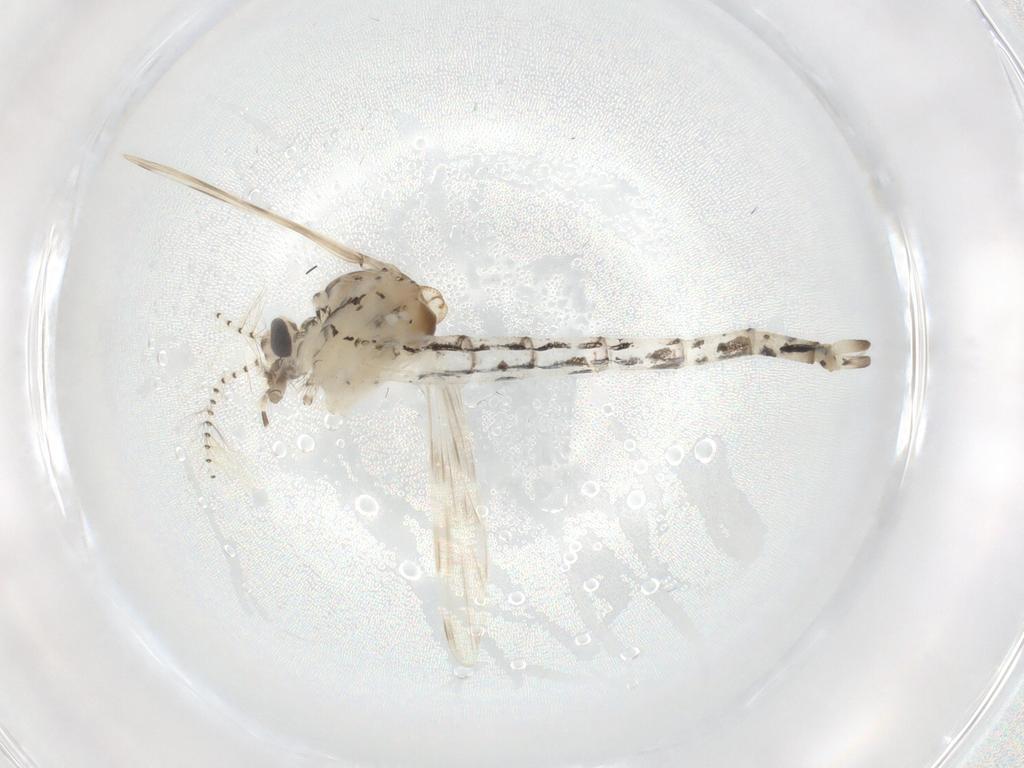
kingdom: Animalia
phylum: Arthropoda
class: Insecta
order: Diptera
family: Chaoboridae
